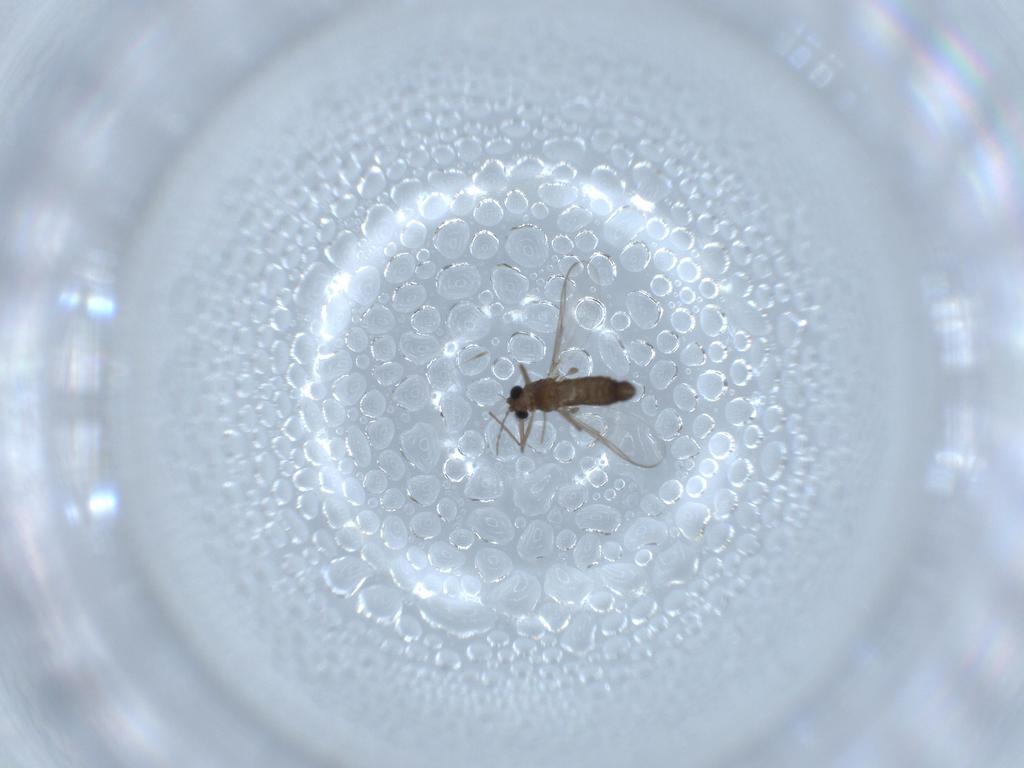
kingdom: Animalia
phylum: Arthropoda
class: Insecta
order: Diptera
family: Chironomidae
